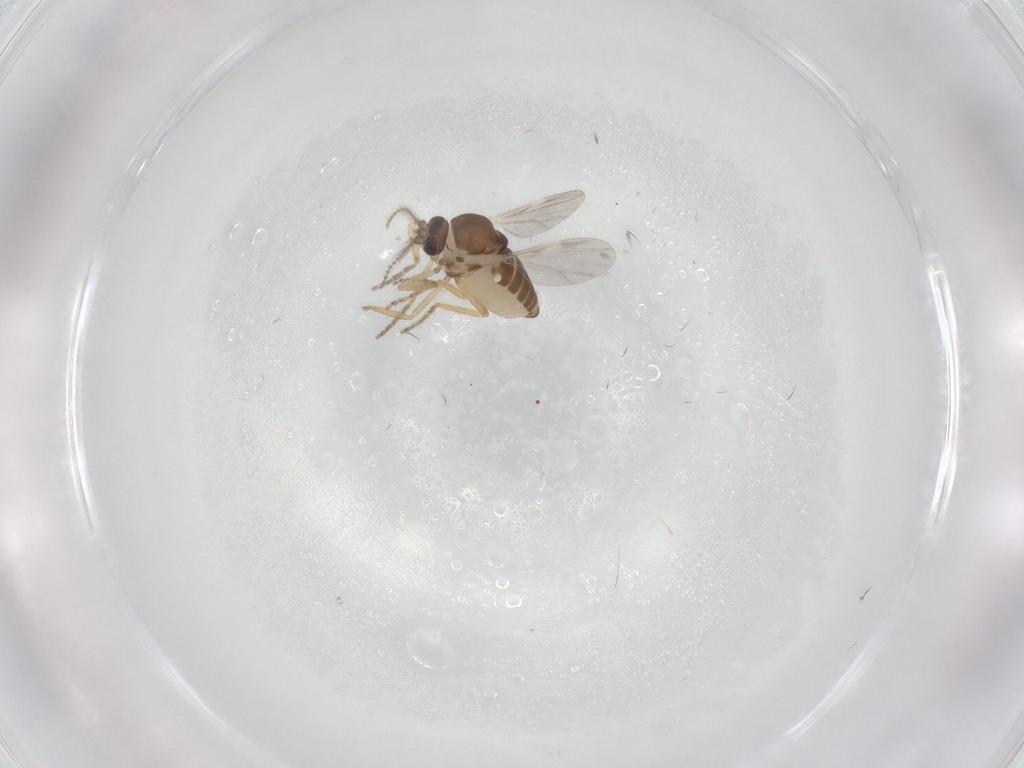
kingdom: Animalia
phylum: Arthropoda
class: Insecta
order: Diptera
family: Ceratopogonidae
